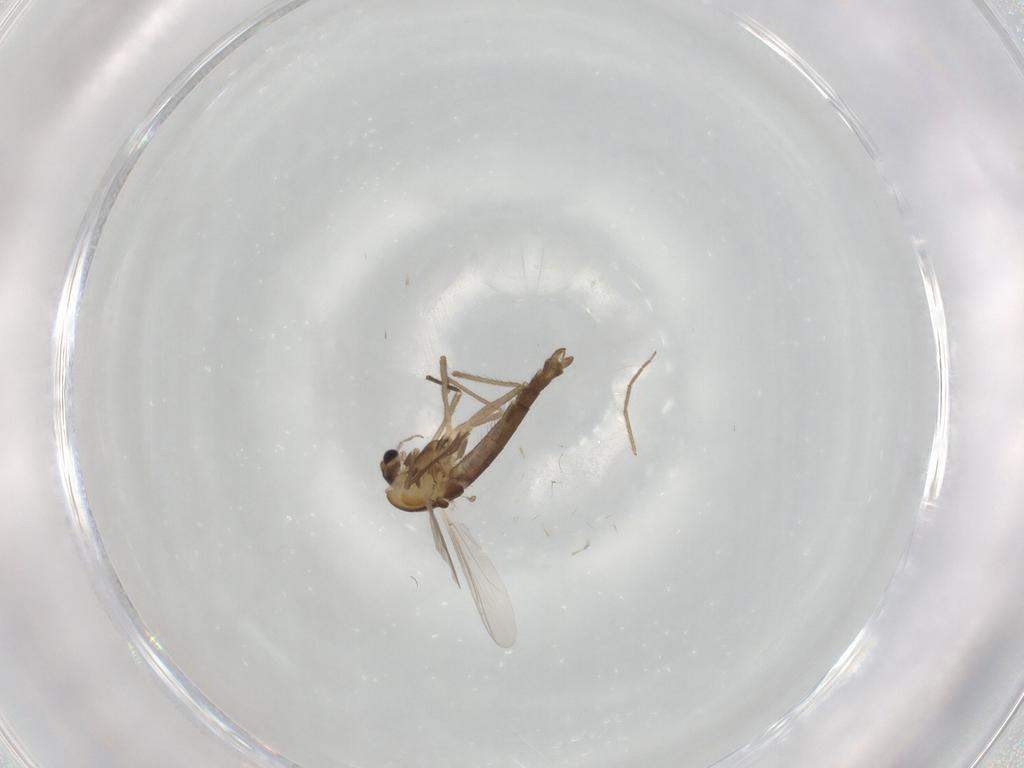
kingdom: Animalia
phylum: Arthropoda
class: Insecta
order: Diptera
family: Chironomidae
